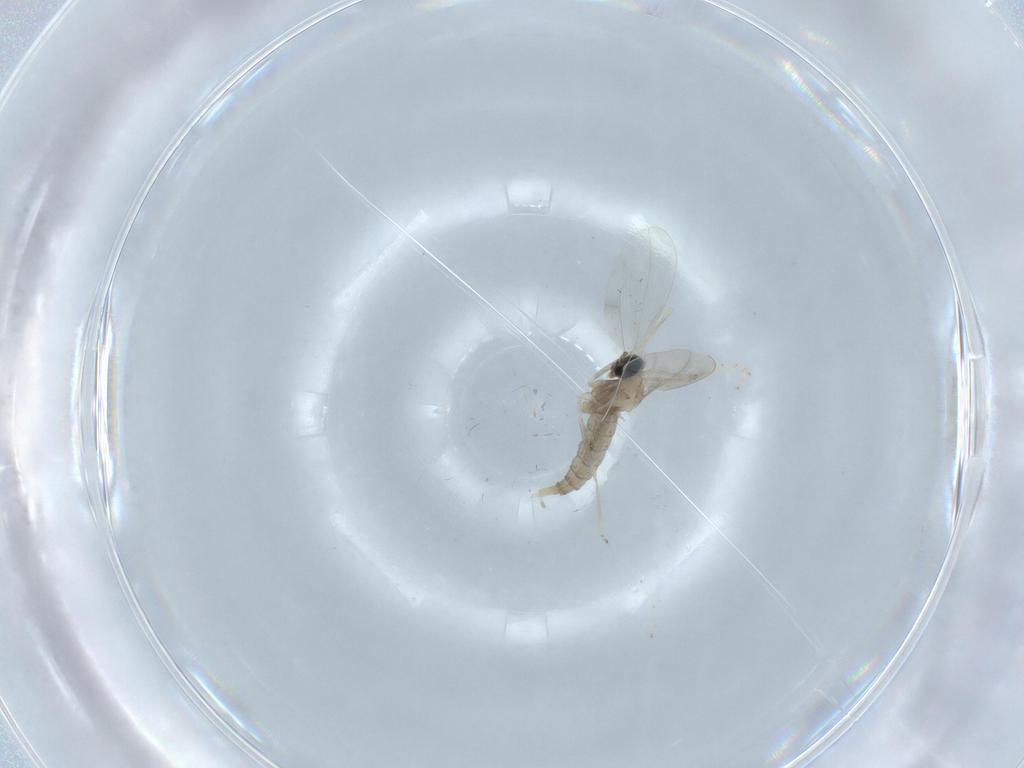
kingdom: Animalia
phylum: Arthropoda
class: Insecta
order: Diptera
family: Cecidomyiidae
